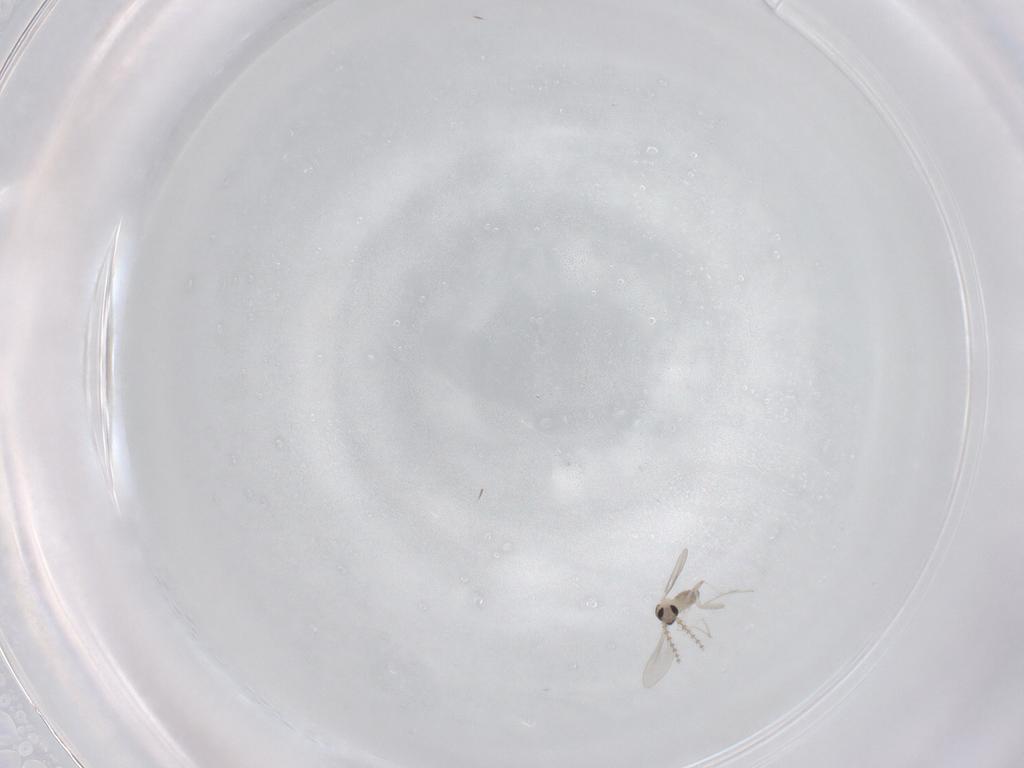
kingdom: Animalia
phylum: Arthropoda
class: Insecta
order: Diptera
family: Cecidomyiidae
